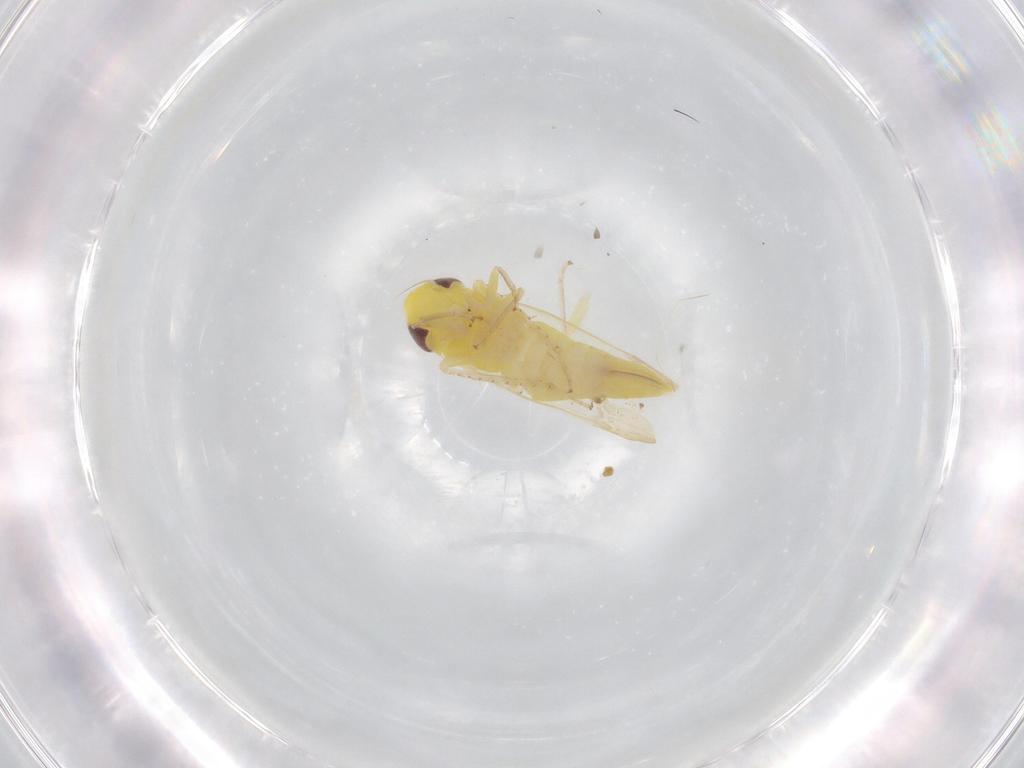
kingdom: Animalia
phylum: Arthropoda
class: Insecta
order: Hemiptera
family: Cicadellidae
